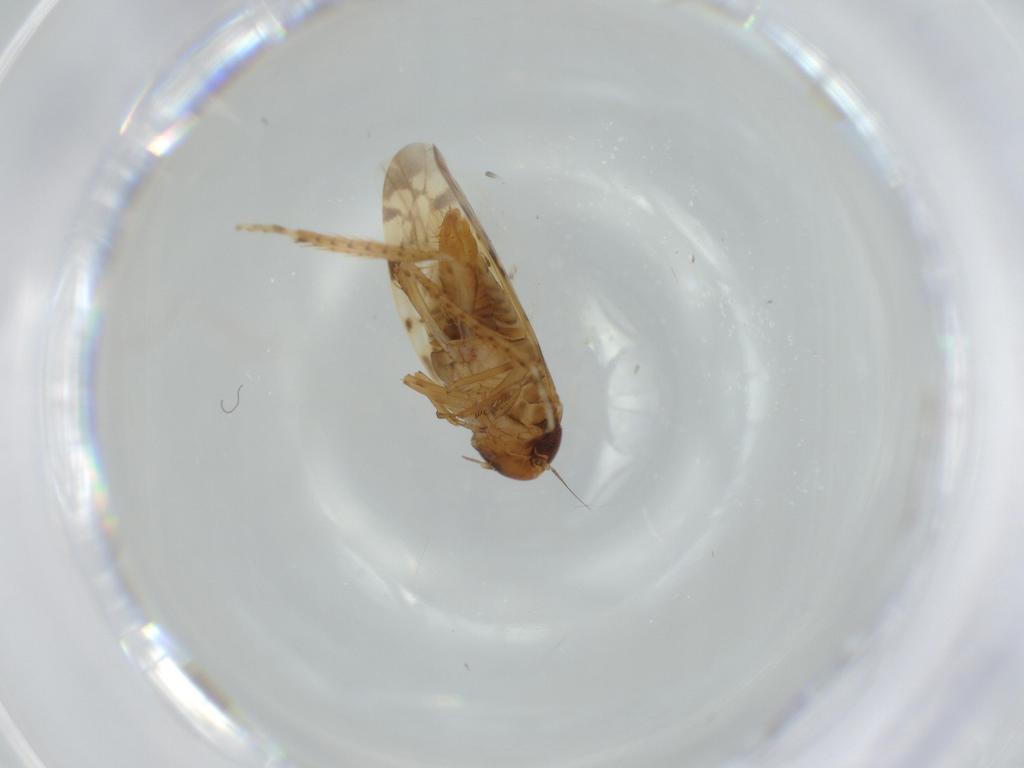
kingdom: Animalia
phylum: Arthropoda
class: Insecta
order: Hemiptera
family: Cicadellidae
